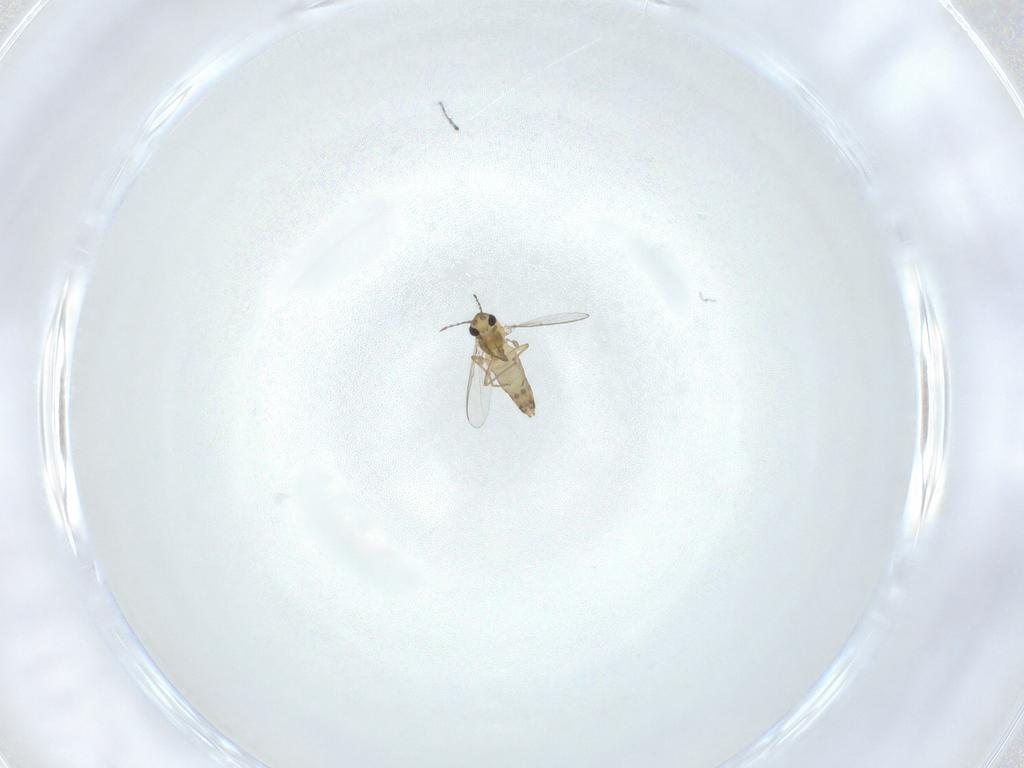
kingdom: Animalia
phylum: Arthropoda
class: Insecta
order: Diptera
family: Chironomidae
